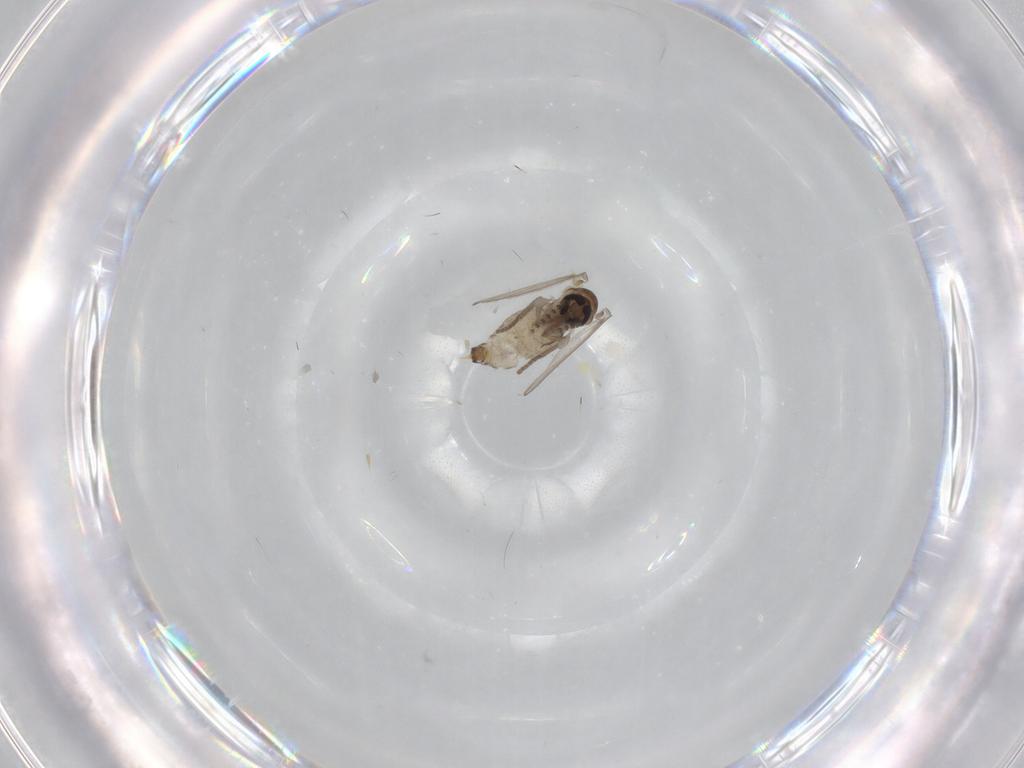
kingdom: Animalia
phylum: Arthropoda
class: Insecta
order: Diptera
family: Psychodidae
